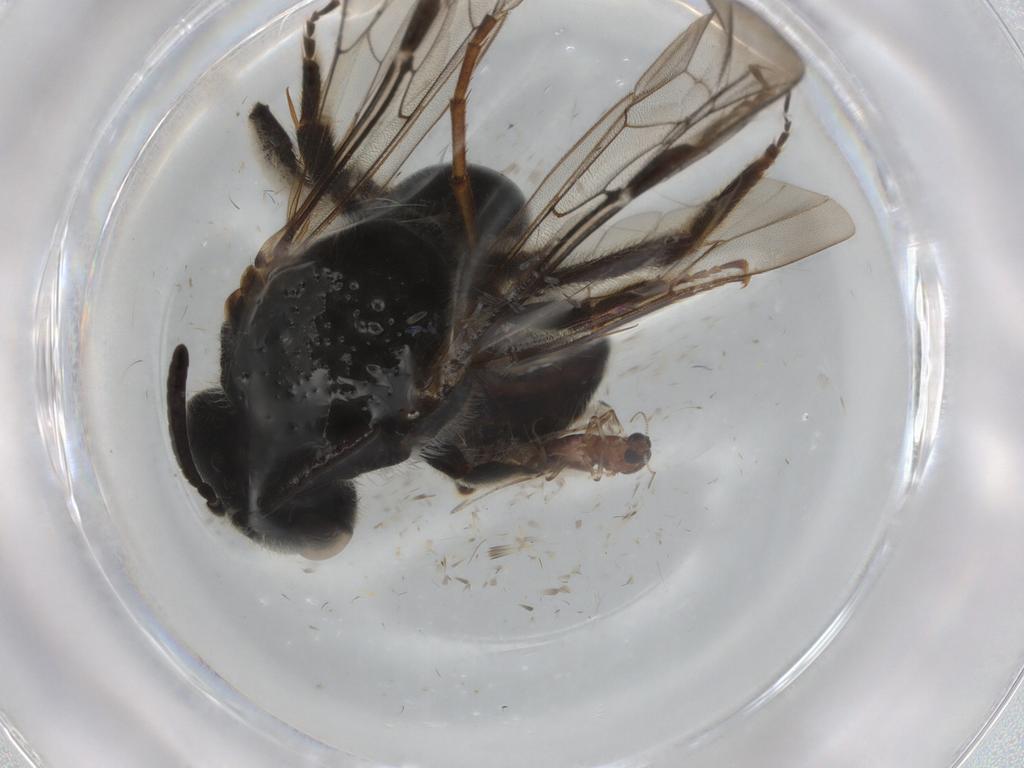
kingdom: Animalia
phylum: Arthropoda
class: Insecta
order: Diptera
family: Ceratopogonidae
